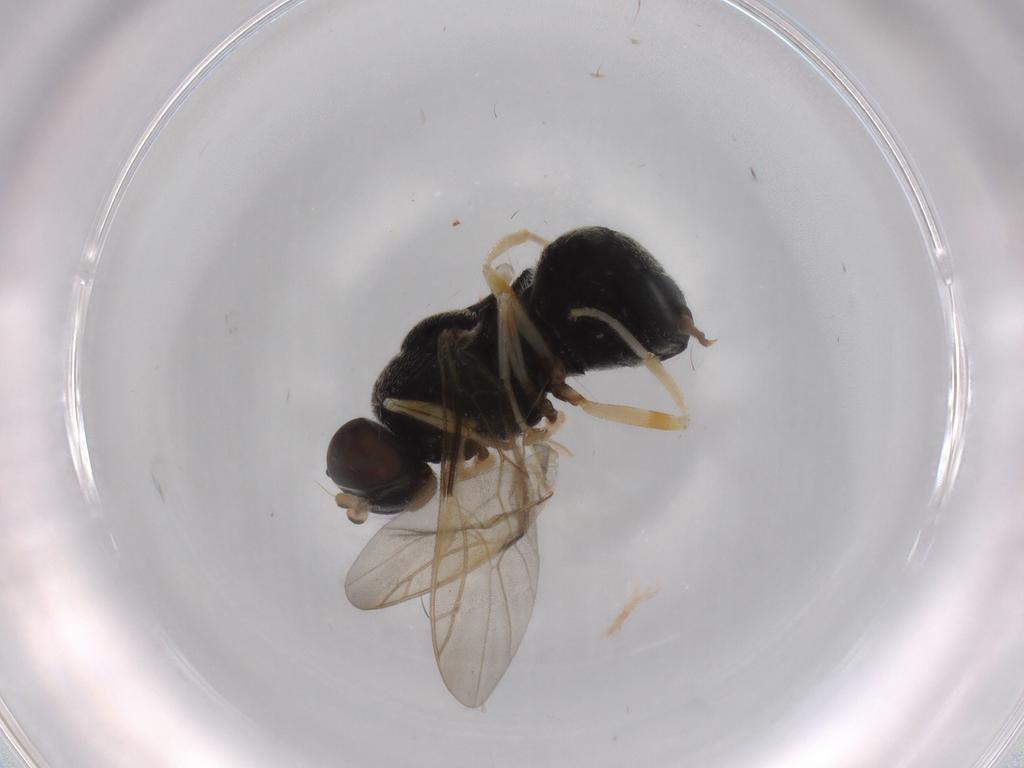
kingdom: Animalia
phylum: Arthropoda
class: Insecta
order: Diptera
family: Stratiomyidae
